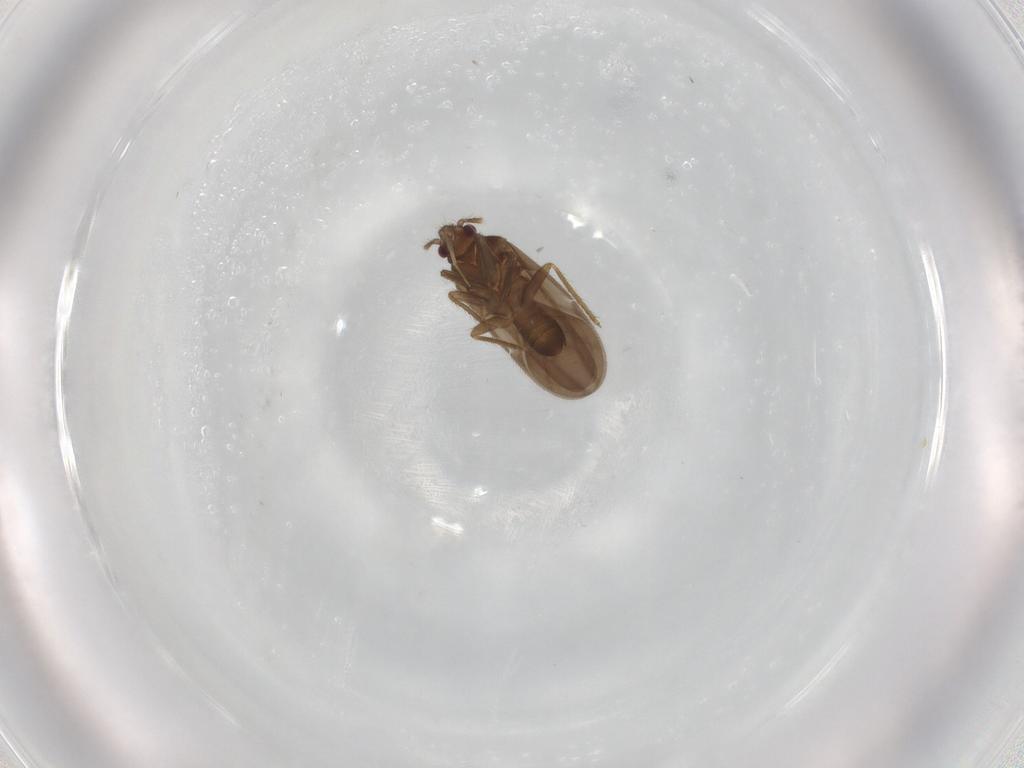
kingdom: Animalia
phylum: Arthropoda
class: Insecta
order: Hemiptera
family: Ceratocombidae
